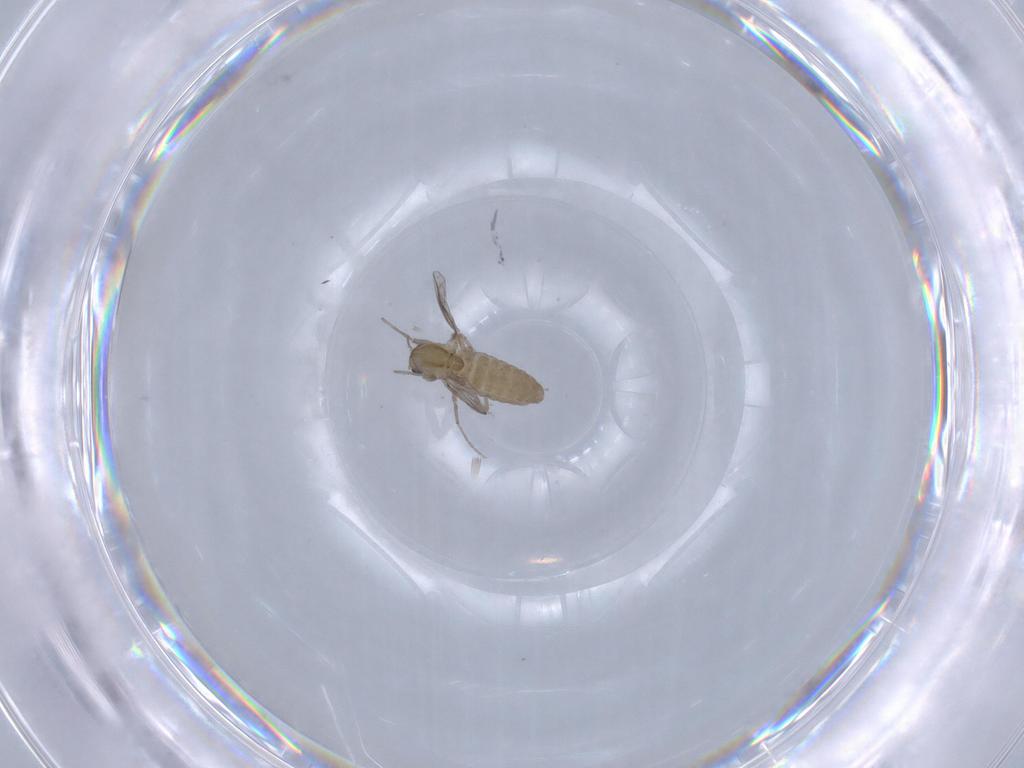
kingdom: Animalia
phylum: Arthropoda
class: Insecta
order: Diptera
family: Chironomidae
